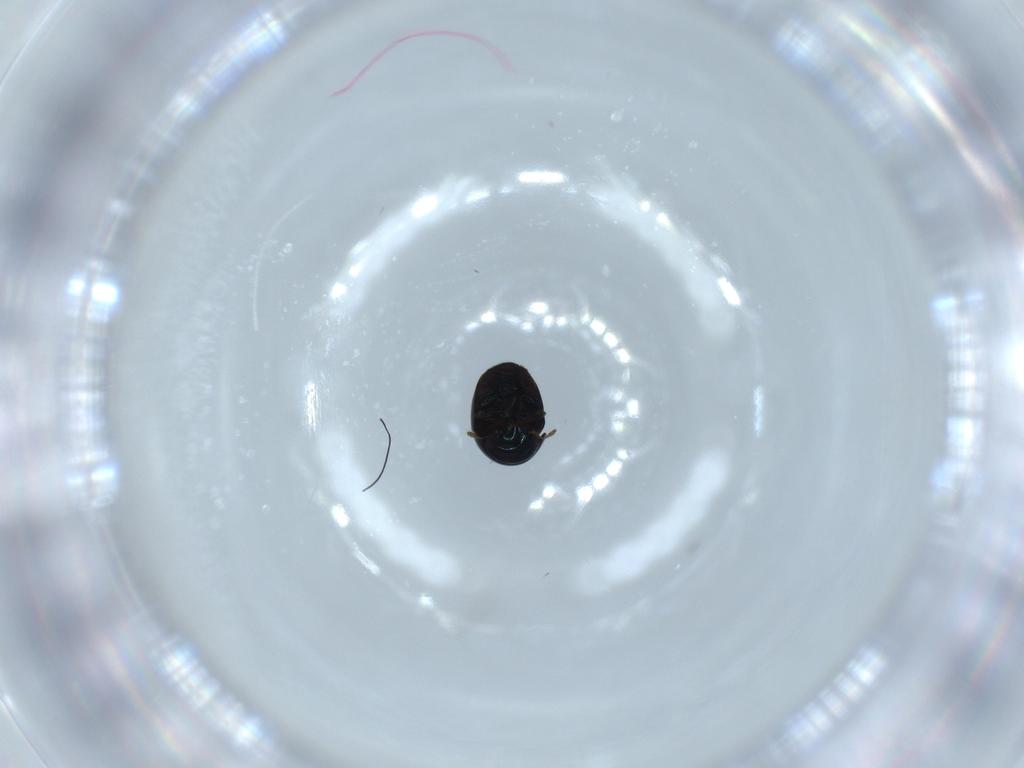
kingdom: Animalia
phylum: Arthropoda
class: Insecta
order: Coleoptera
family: Cybocephalidae
